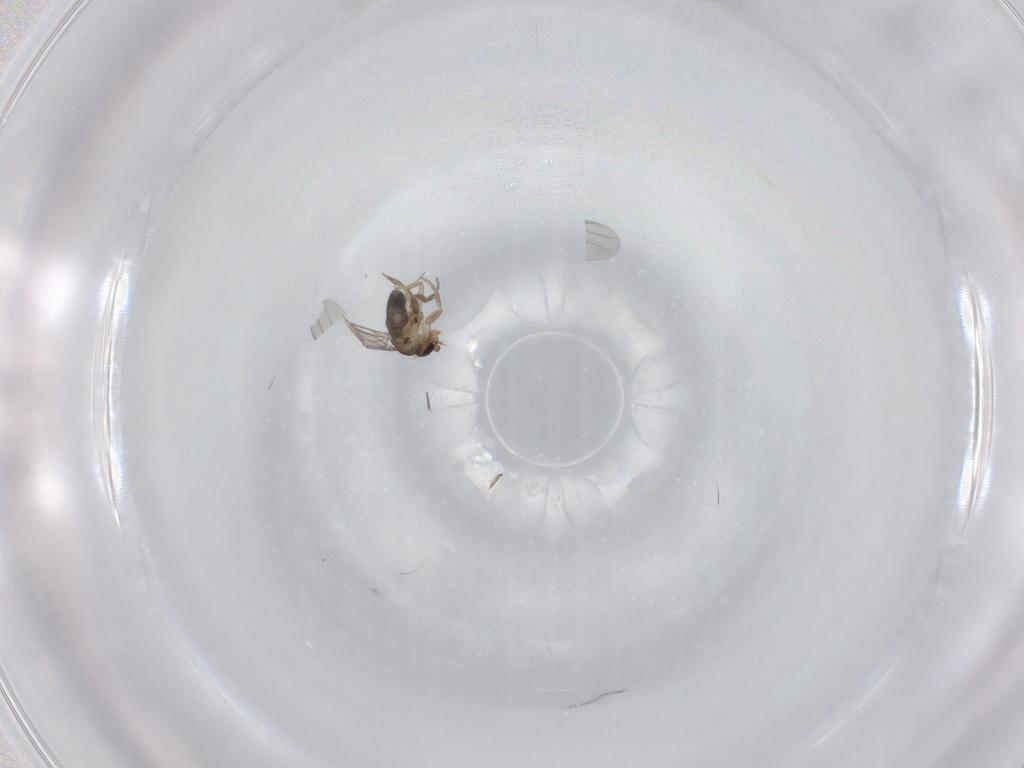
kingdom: Animalia
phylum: Arthropoda
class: Insecta
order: Diptera
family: Phoridae
